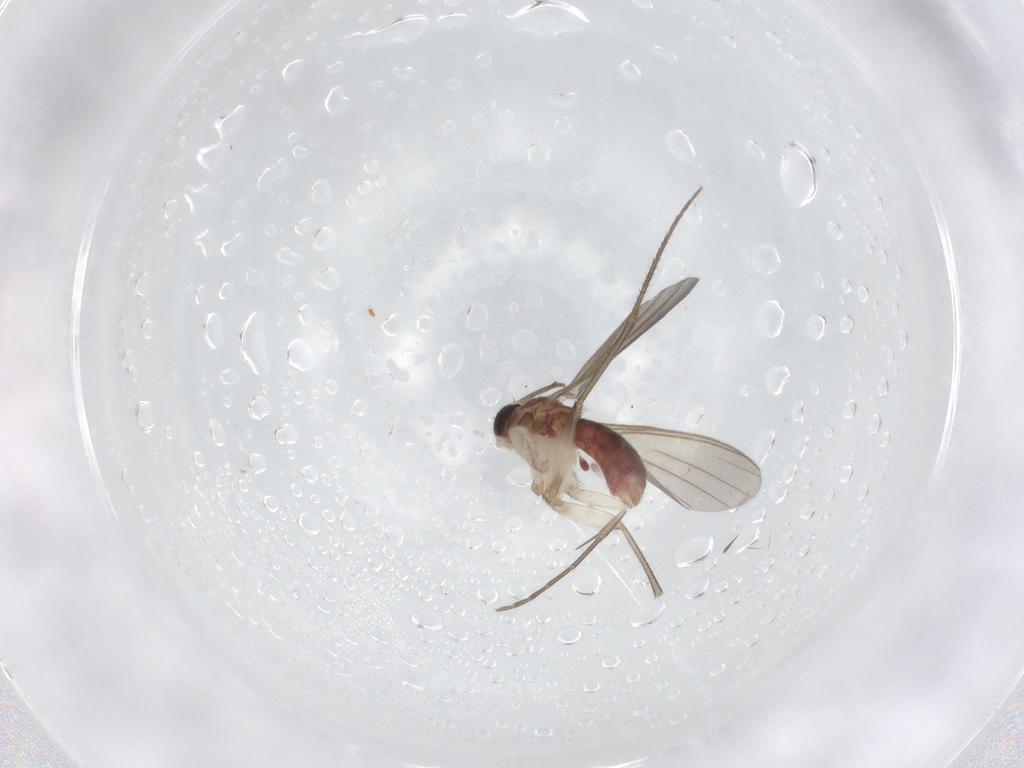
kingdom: Animalia
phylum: Arthropoda
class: Insecta
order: Diptera
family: Mycetophilidae
